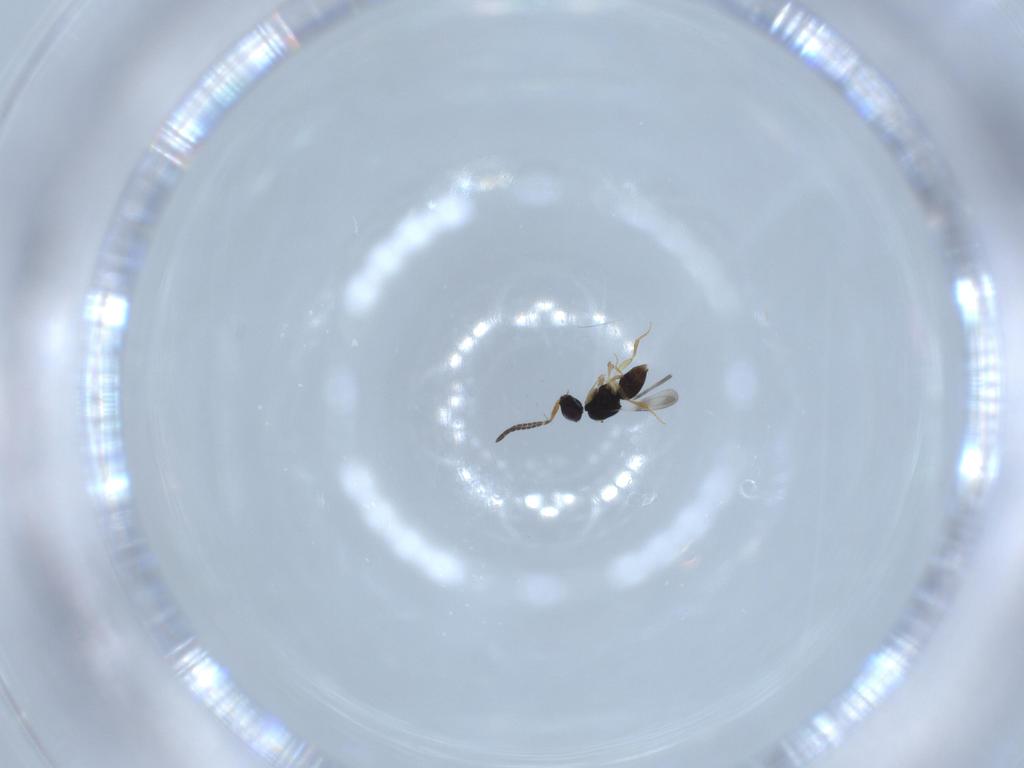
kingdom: Animalia
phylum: Arthropoda
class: Insecta
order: Hymenoptera
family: Ceraphronidae
